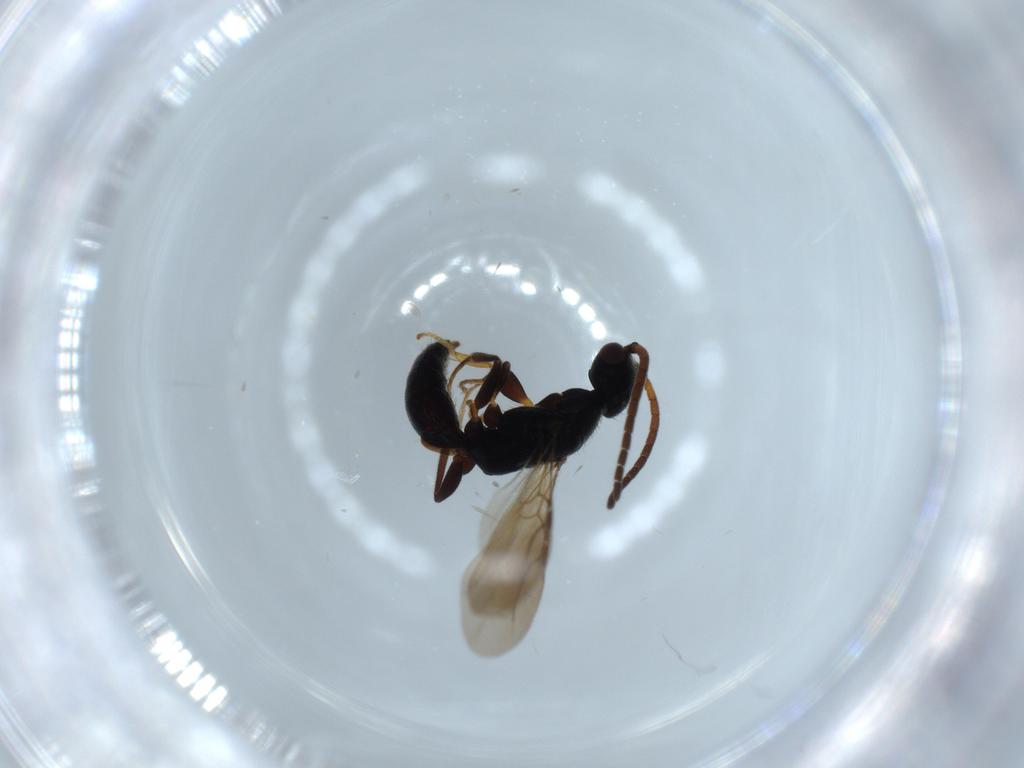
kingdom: Animalia
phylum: Arthropoda
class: Insecta
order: Hymenoptera
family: Bethylidae
